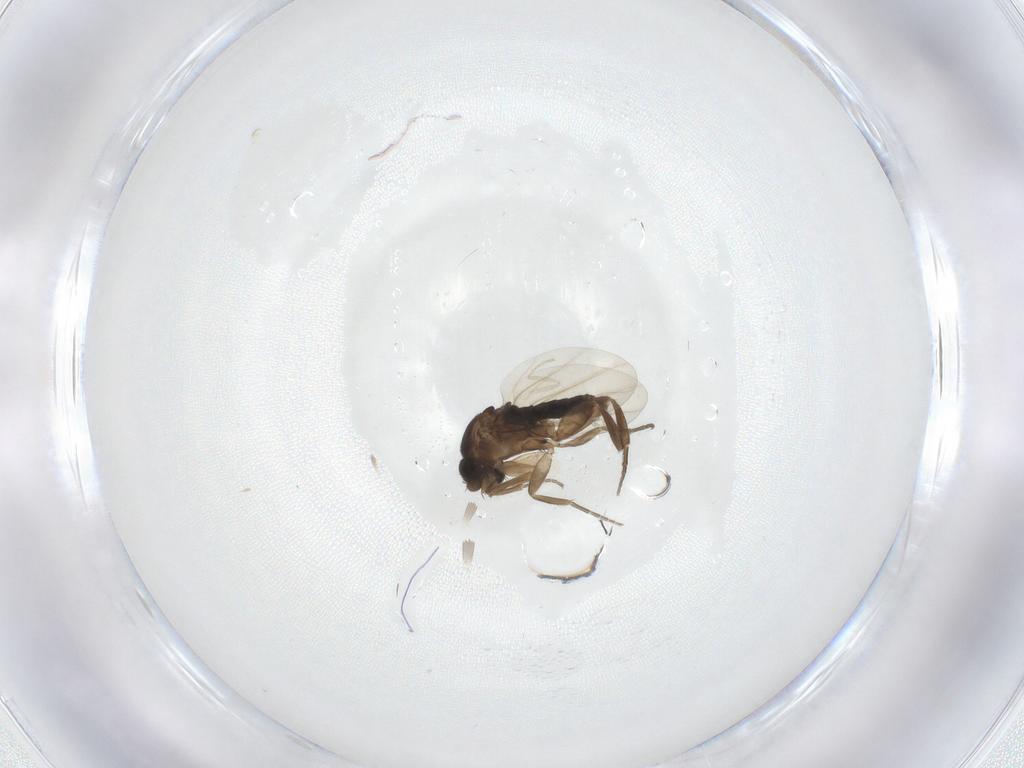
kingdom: Animalia
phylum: Arthropoda
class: Insecta
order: Diptera
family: Phoridae
